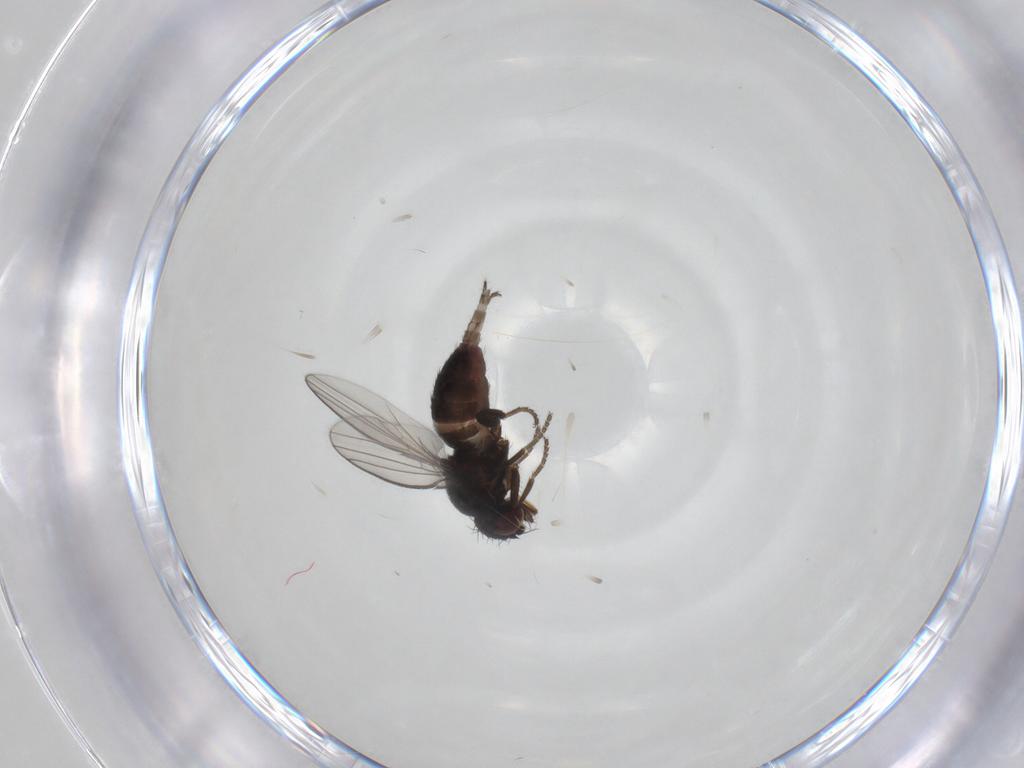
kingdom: Animalia
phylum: Arthropoda
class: Insecta
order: Diptera
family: Milichiidae
